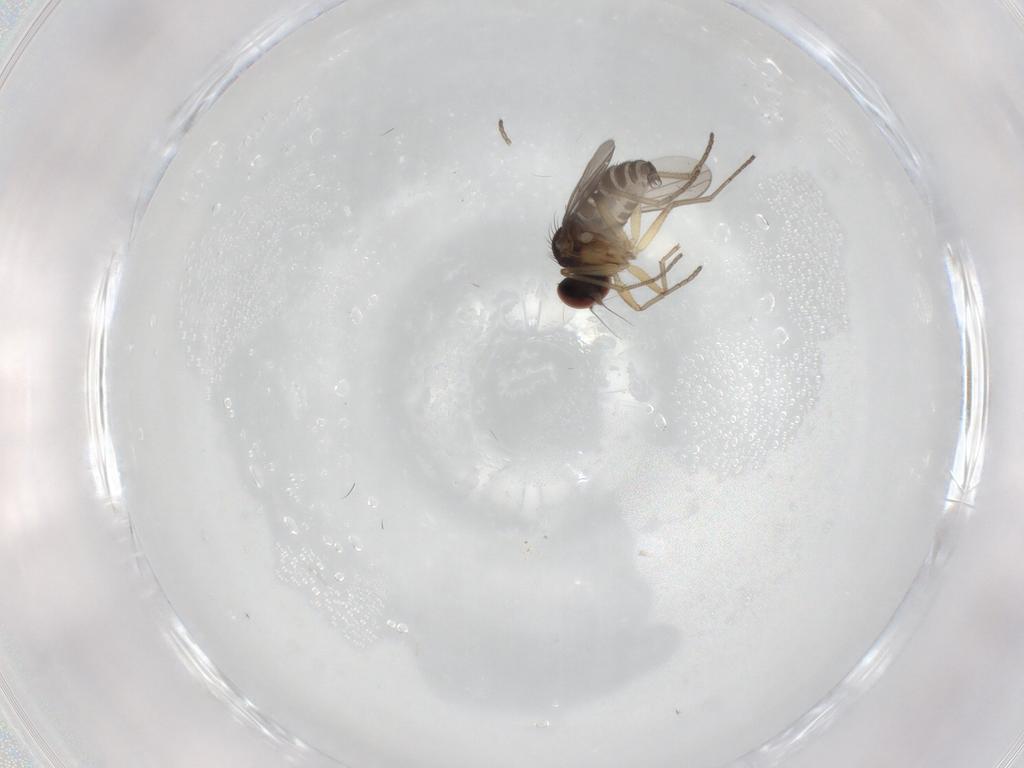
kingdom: Animalia
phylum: Arthropoda
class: Insecta
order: Diptera
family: Dolichopodidae
